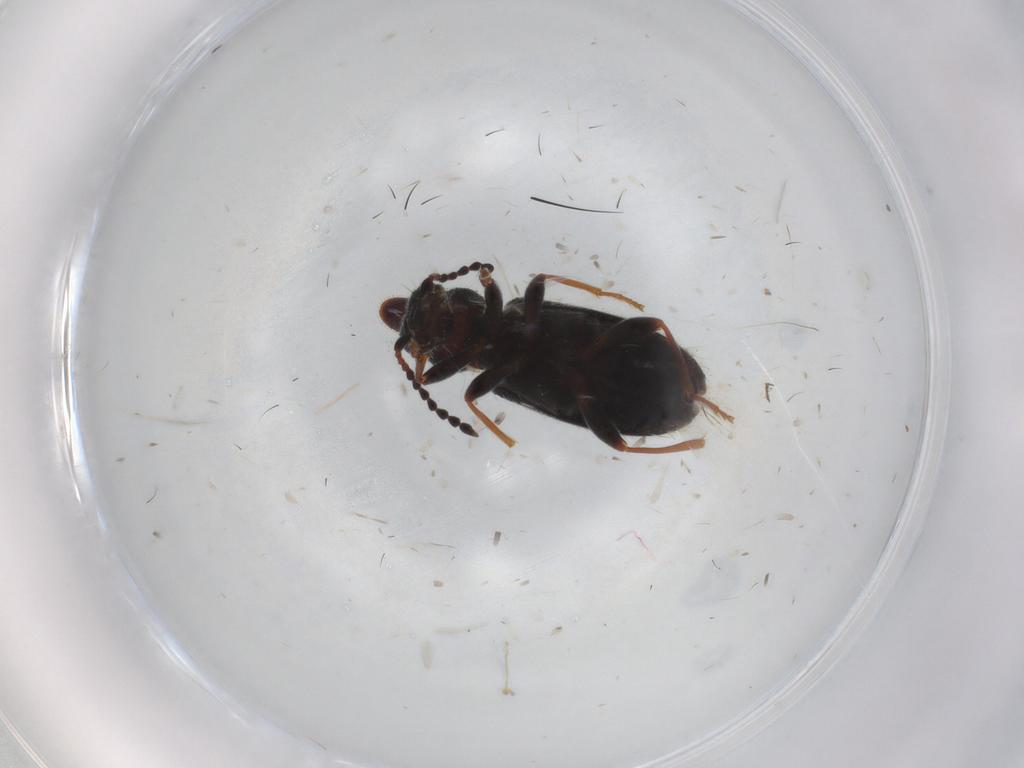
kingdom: Animalia
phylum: Arthropoda
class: Insecta
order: Coleoptera
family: Anthicidae
